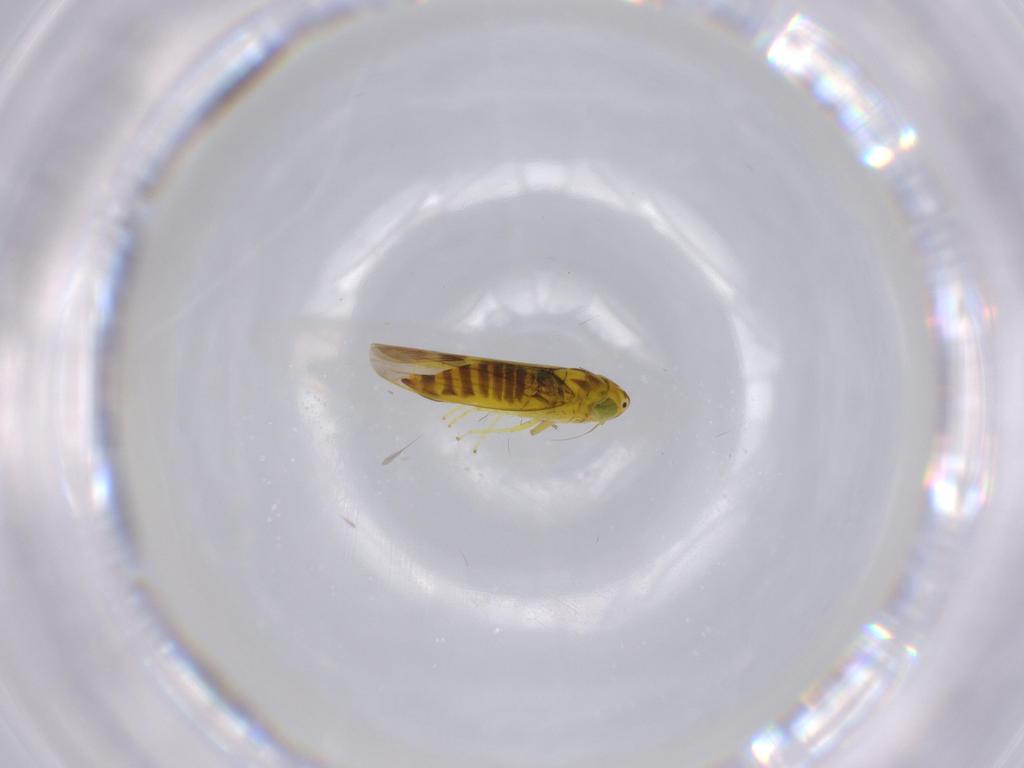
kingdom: Animalia
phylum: Arthropoda
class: Insecta
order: Hemiptera
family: Cicadellidae
